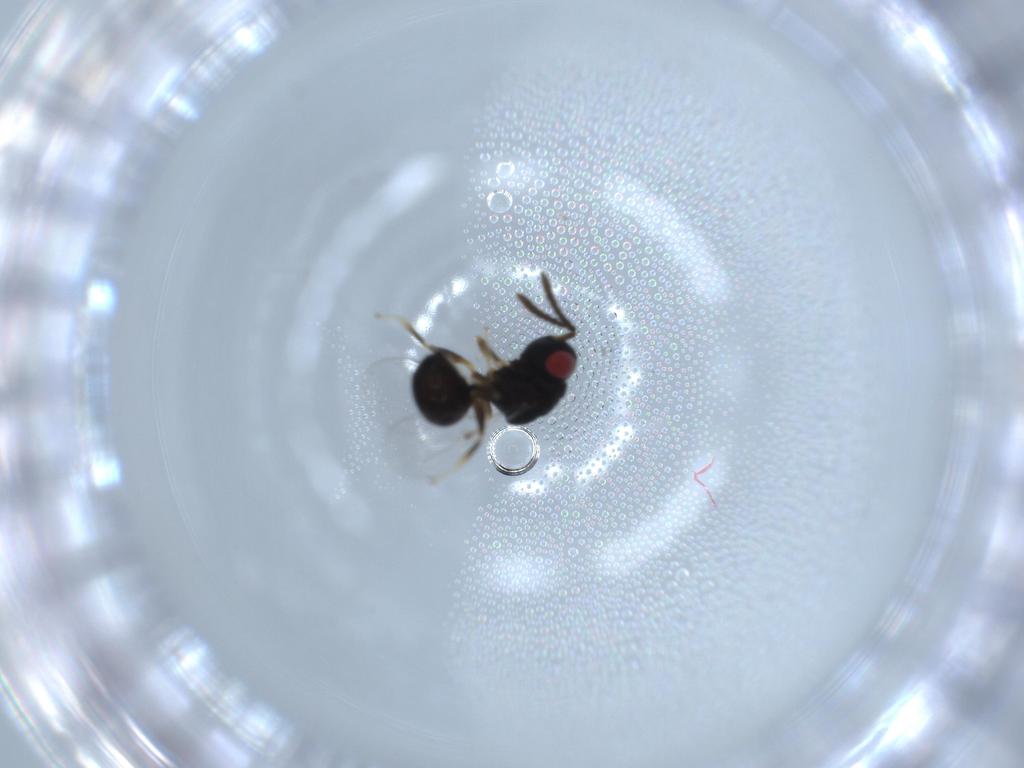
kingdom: Animalia
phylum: Arthropoda
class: Insecta
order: Hymenoptera
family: Eurytomidae
